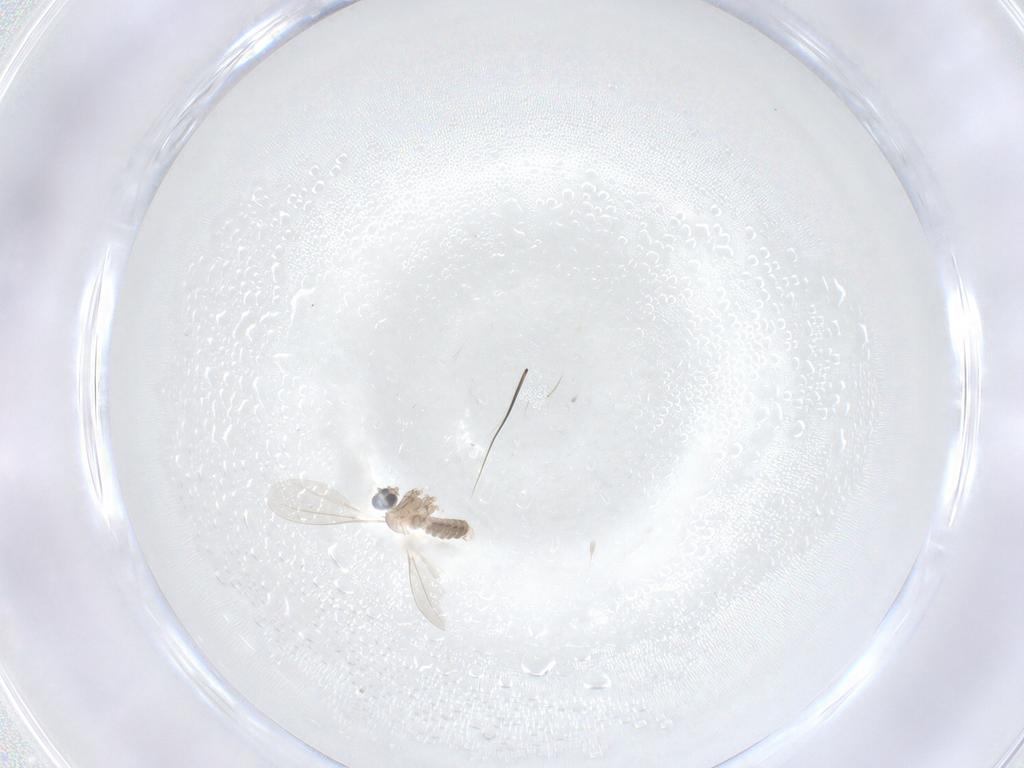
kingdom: Animalia
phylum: Arthropoda
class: Insecta
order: Diptera
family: Cecidomyiidae
